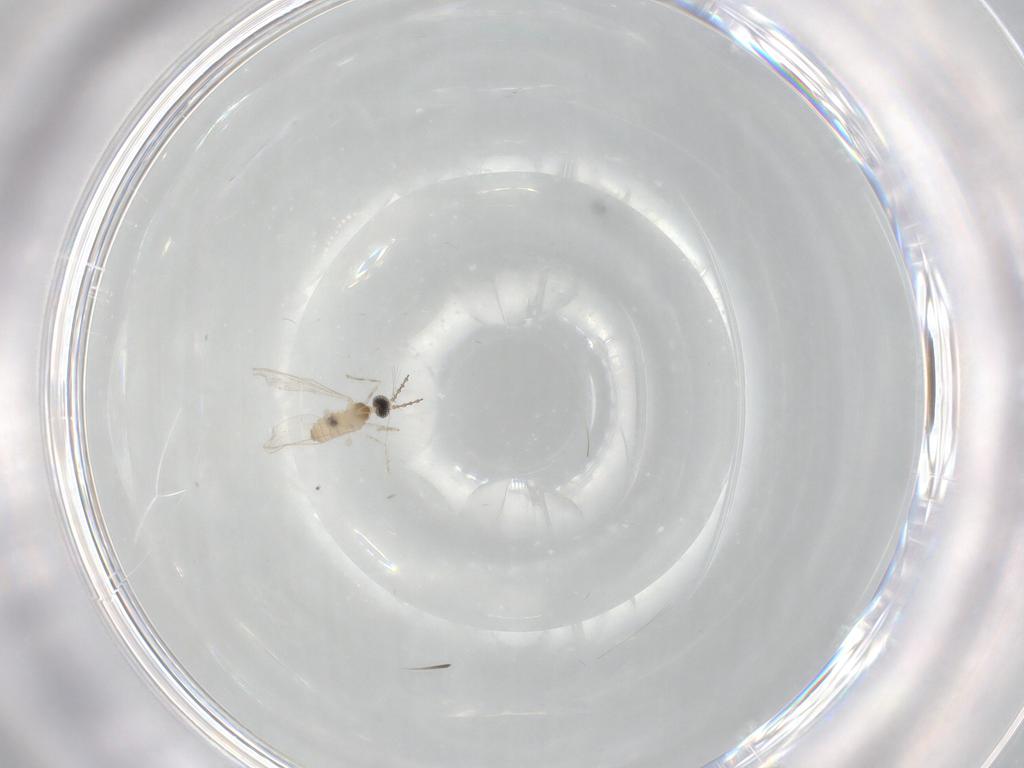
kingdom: Animalia
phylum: Arthropoda
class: Insecta
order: Diptera
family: Cecidomyiidae
